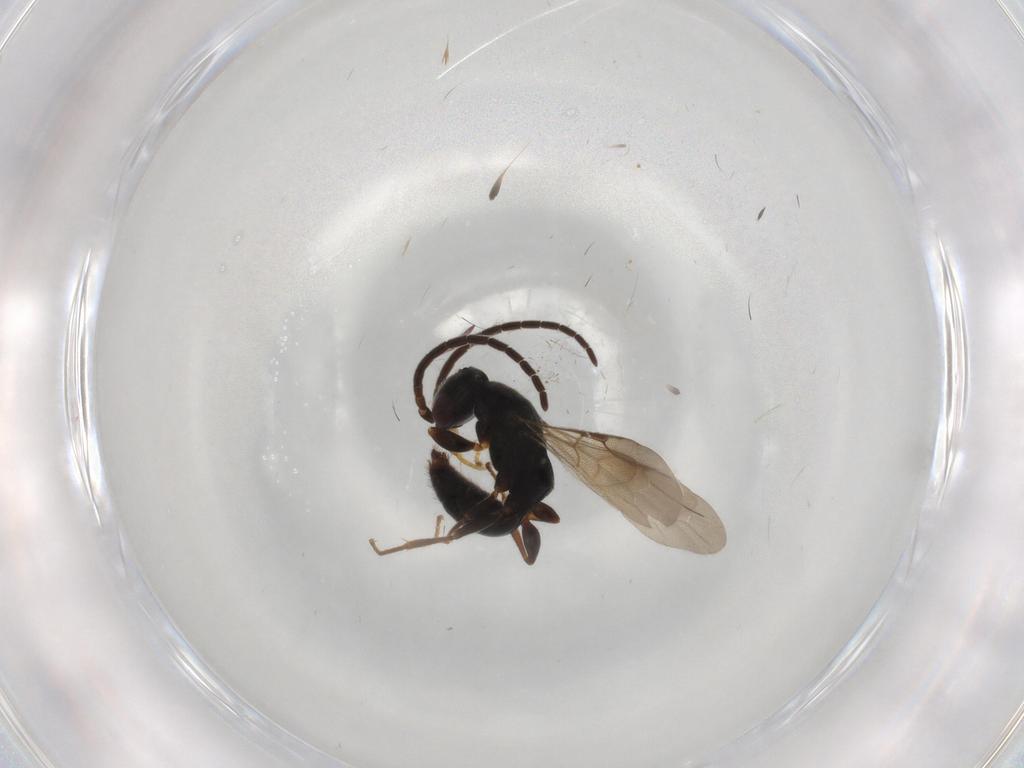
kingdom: Animalia
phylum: Arthropoda
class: Insecta
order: Hymenoptera
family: Bethylidae
